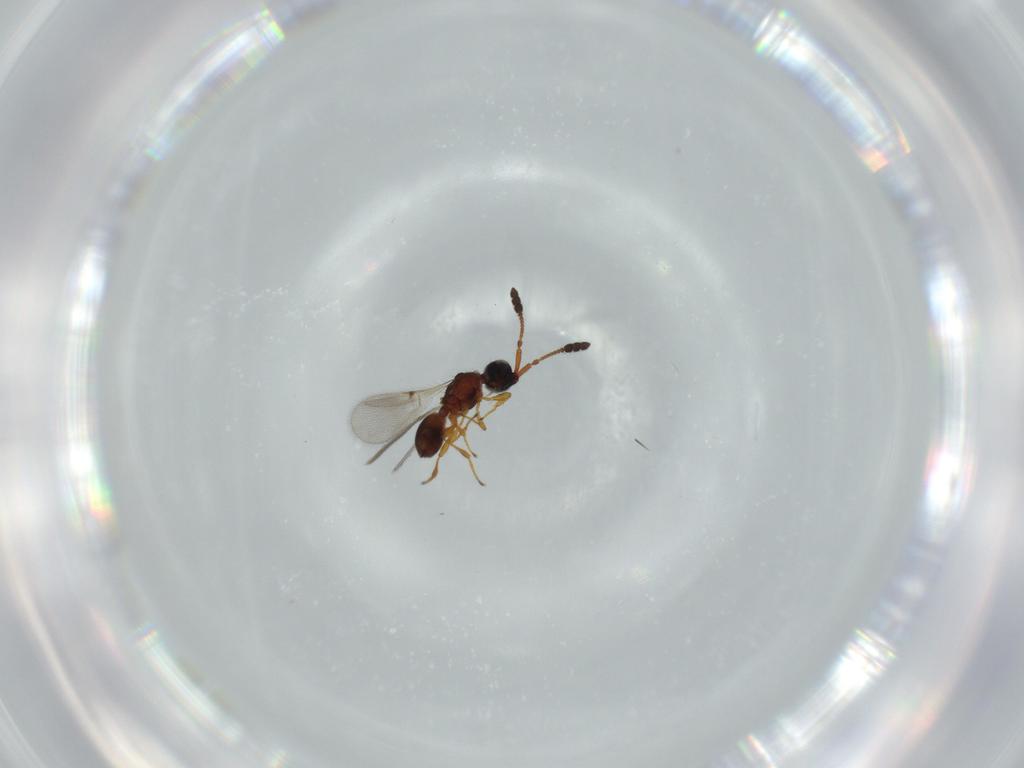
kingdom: Animalia
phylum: Arthropoda
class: Insecta
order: Hymenoptera
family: Diapriidae
